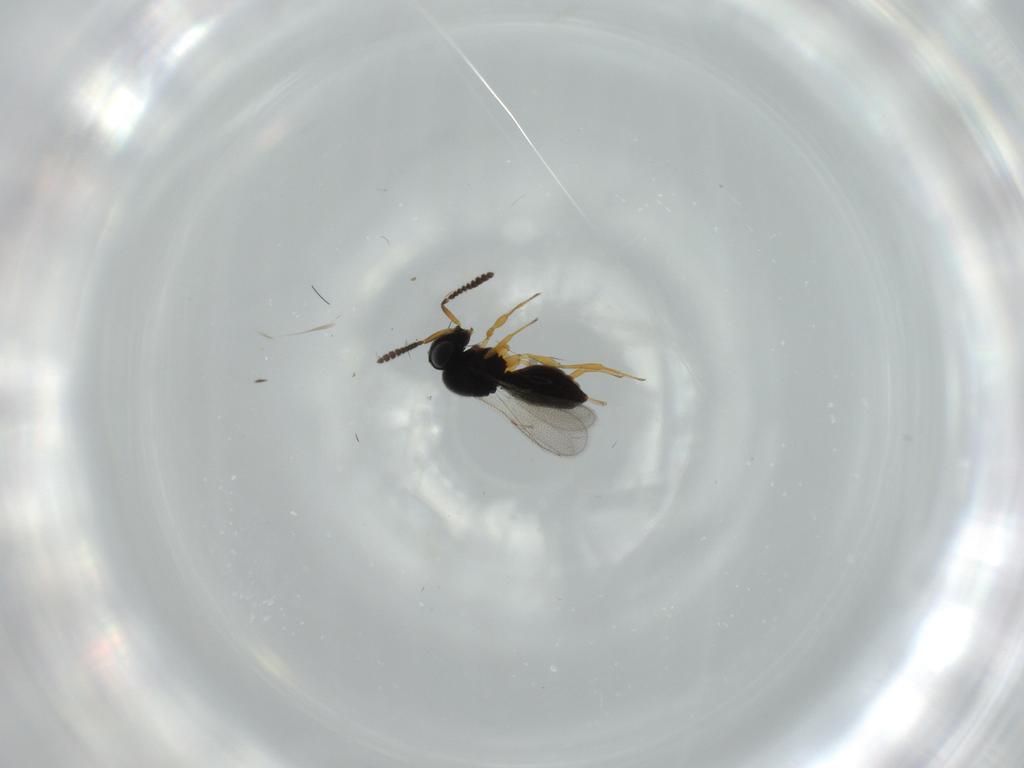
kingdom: Animalia
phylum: Arthropoda
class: Insecta
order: Hymenoptera
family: Scelionidae
